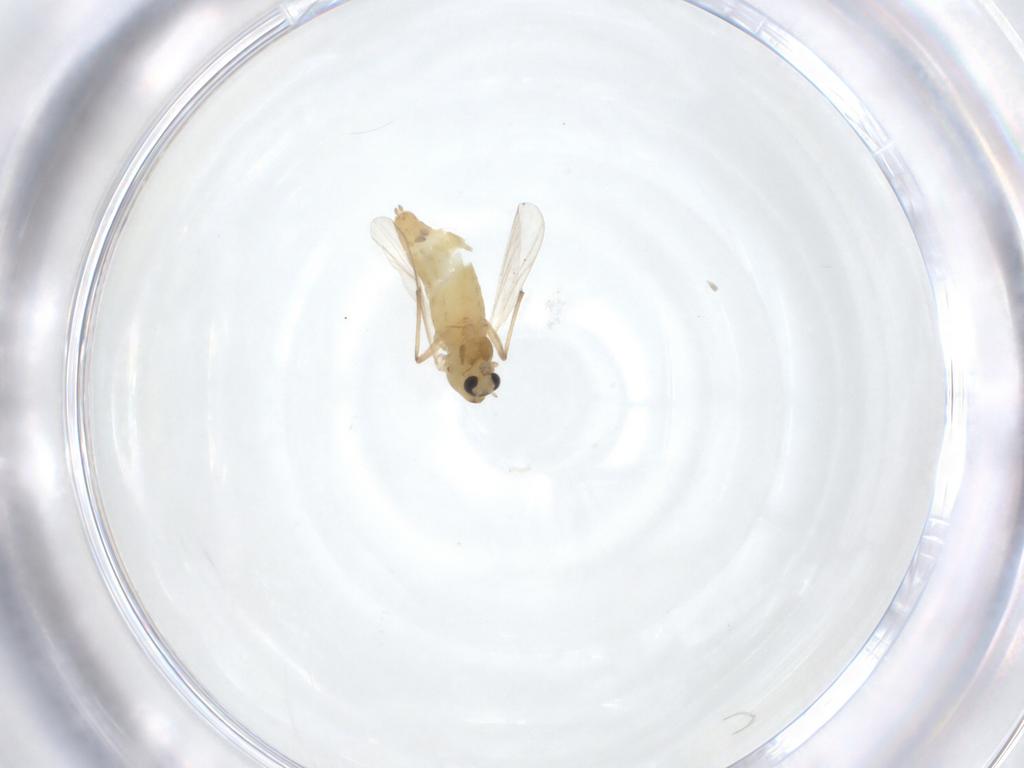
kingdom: Animalia
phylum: Arthropoda
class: Insecta
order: Diptera
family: Chironomidae
